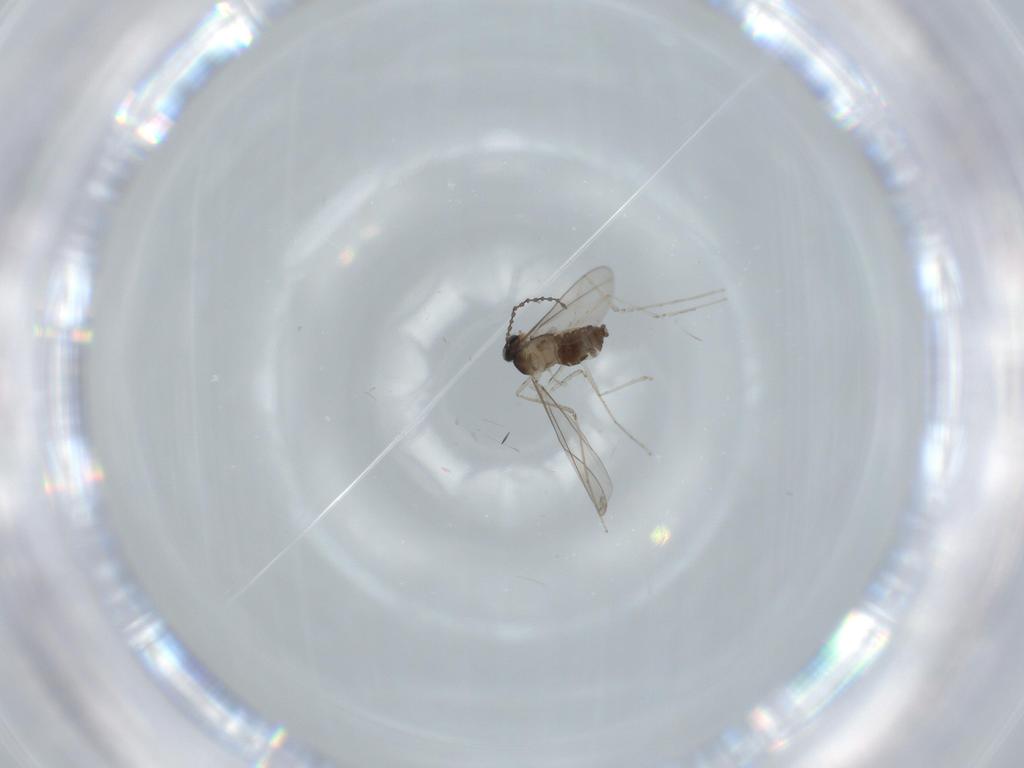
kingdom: Animalia
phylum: Arthropoda
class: Insecta
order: Diptera
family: Cecidomyiidae
